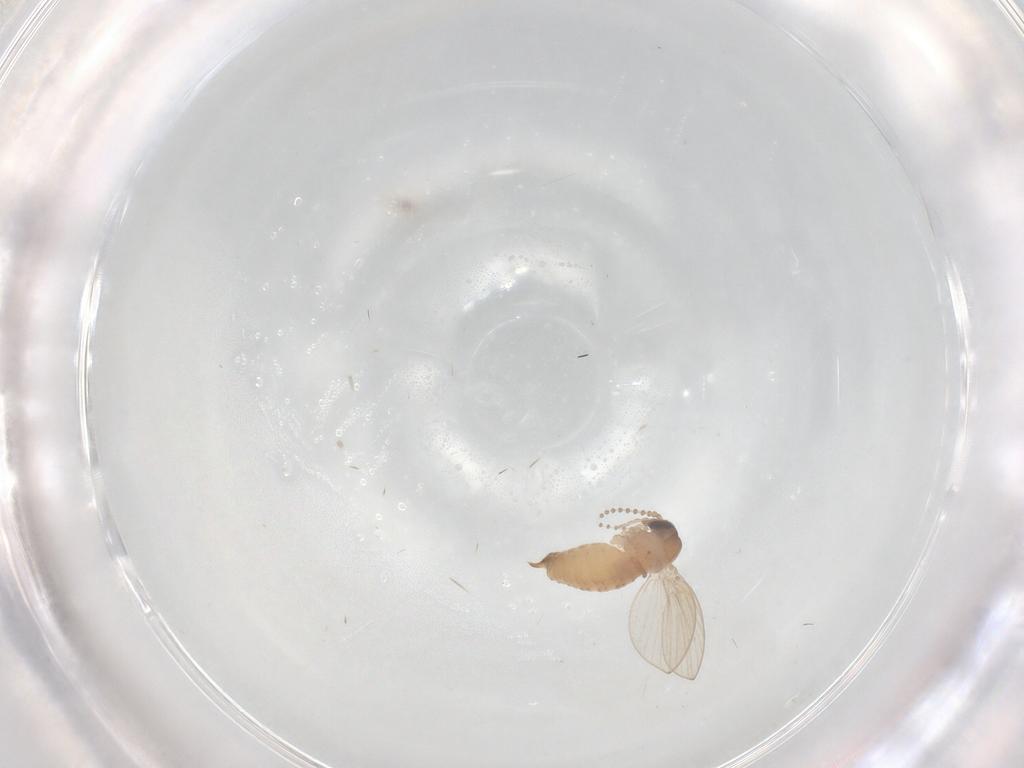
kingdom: Animalia
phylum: Arthropoda
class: Insecta
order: Diptera
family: Psychodidae
